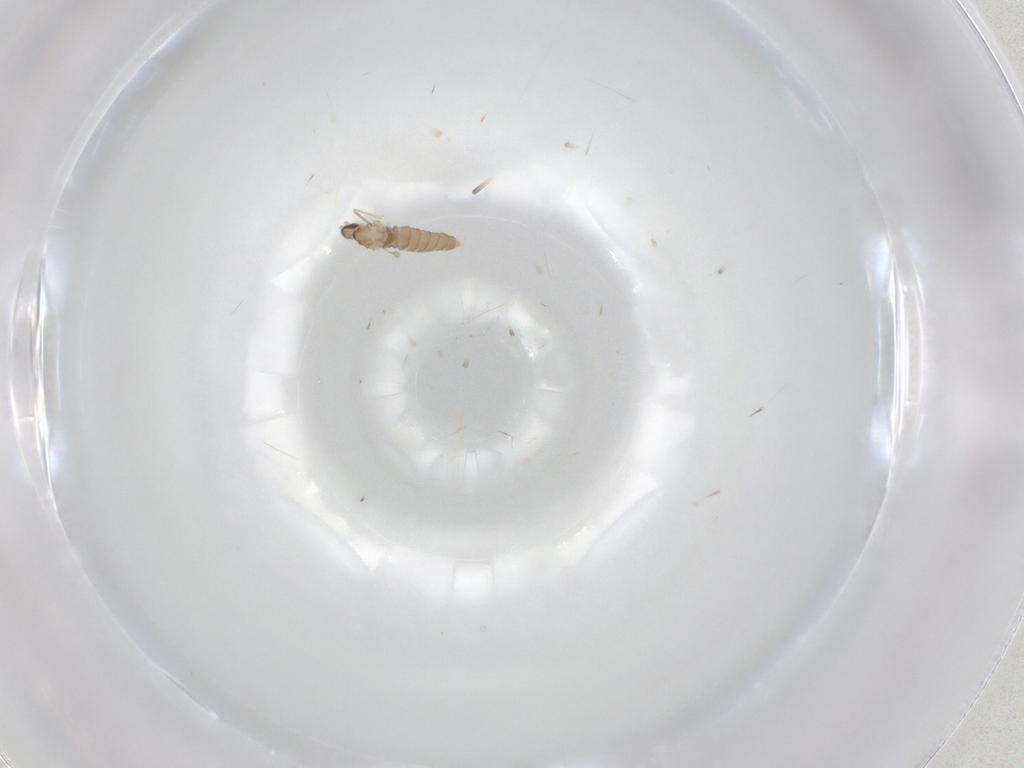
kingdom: Animalia
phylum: Arthropoda
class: Insecta
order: Diptera
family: Cecidomyiidae
